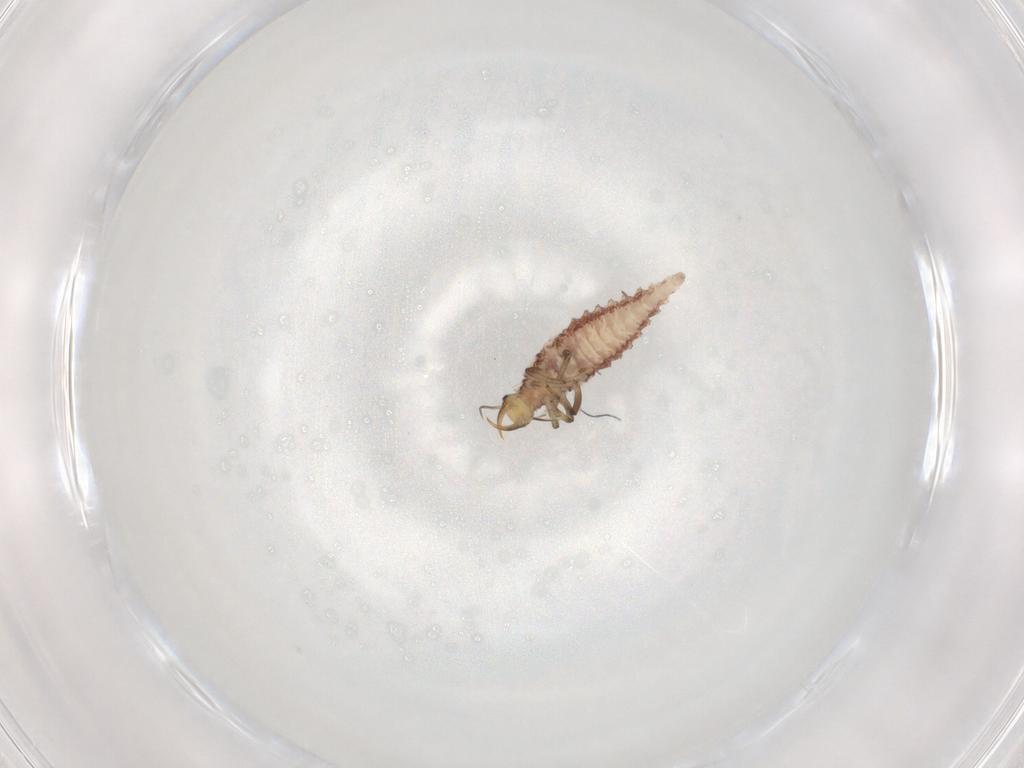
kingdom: Animalia
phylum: Arthropoda
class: Insecta
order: Neuroptera
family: Chrysopidae
